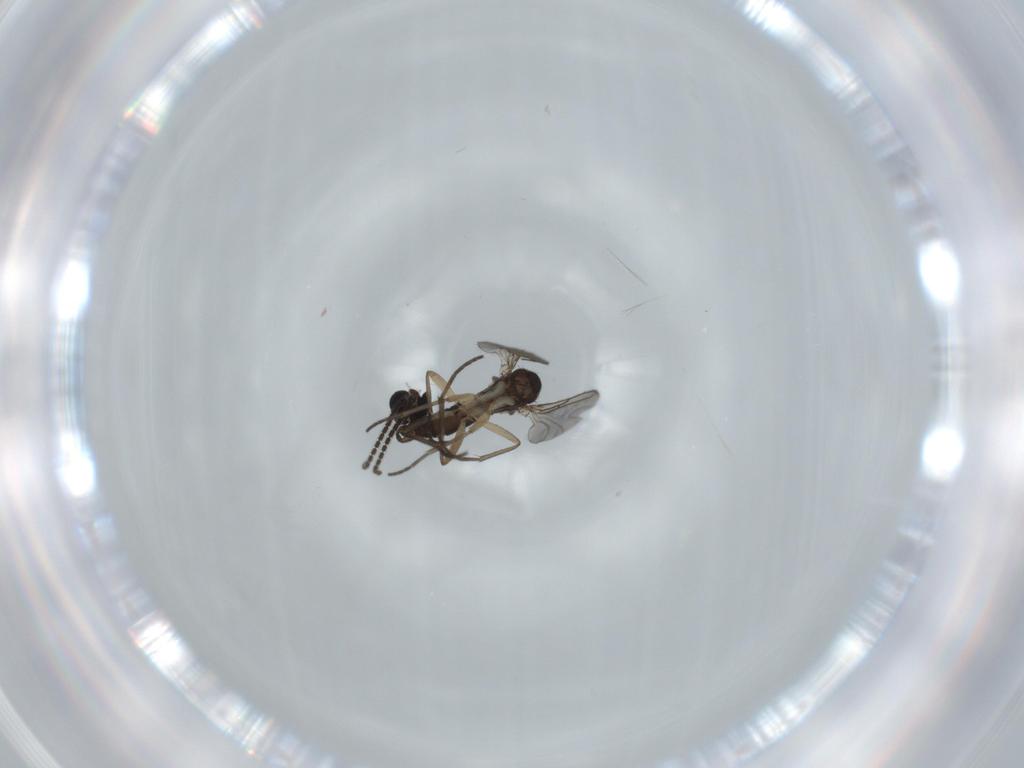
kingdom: Animalia
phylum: Arthropoda
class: Insecta
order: Diptera
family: Sciaridae
